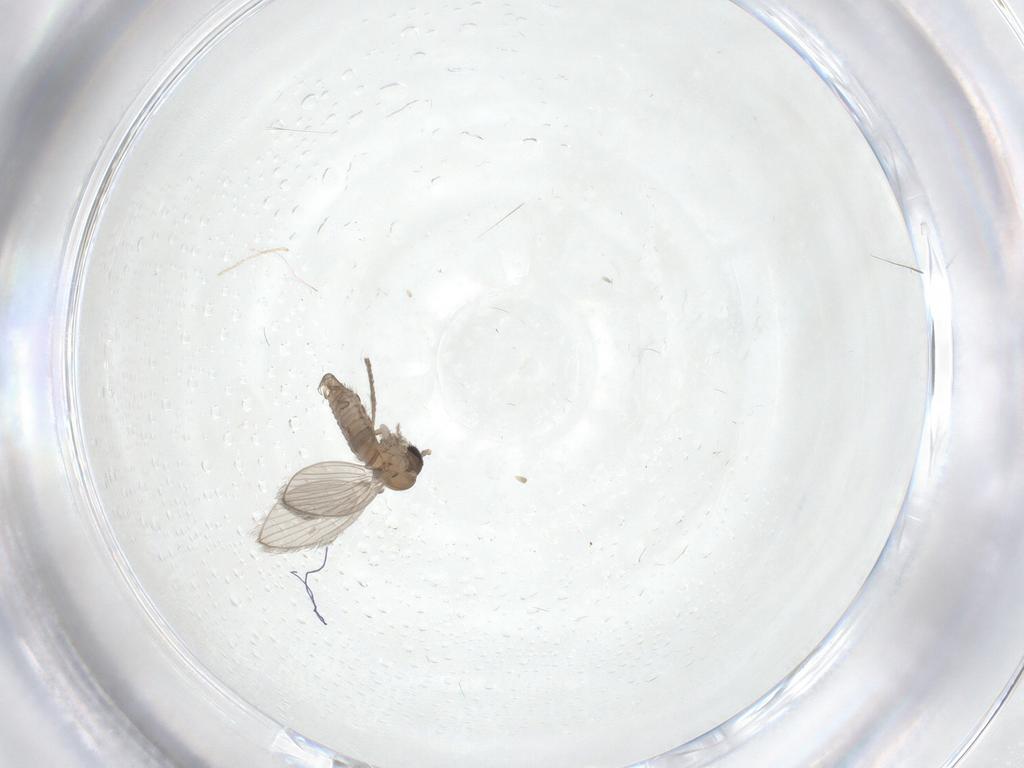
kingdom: Animalia
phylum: Arthropoda
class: Insecta
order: Diptera
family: Psychodidae
